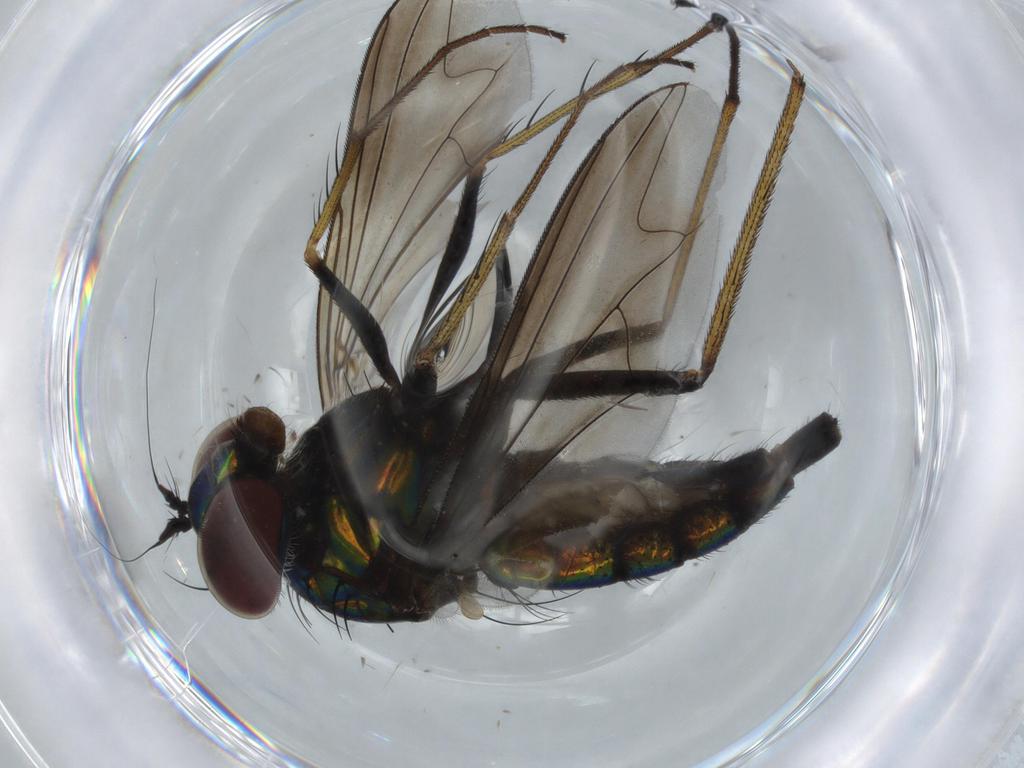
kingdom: Animalia
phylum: Arthropoda
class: Insecta
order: Diptera
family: Dolichopodidae
